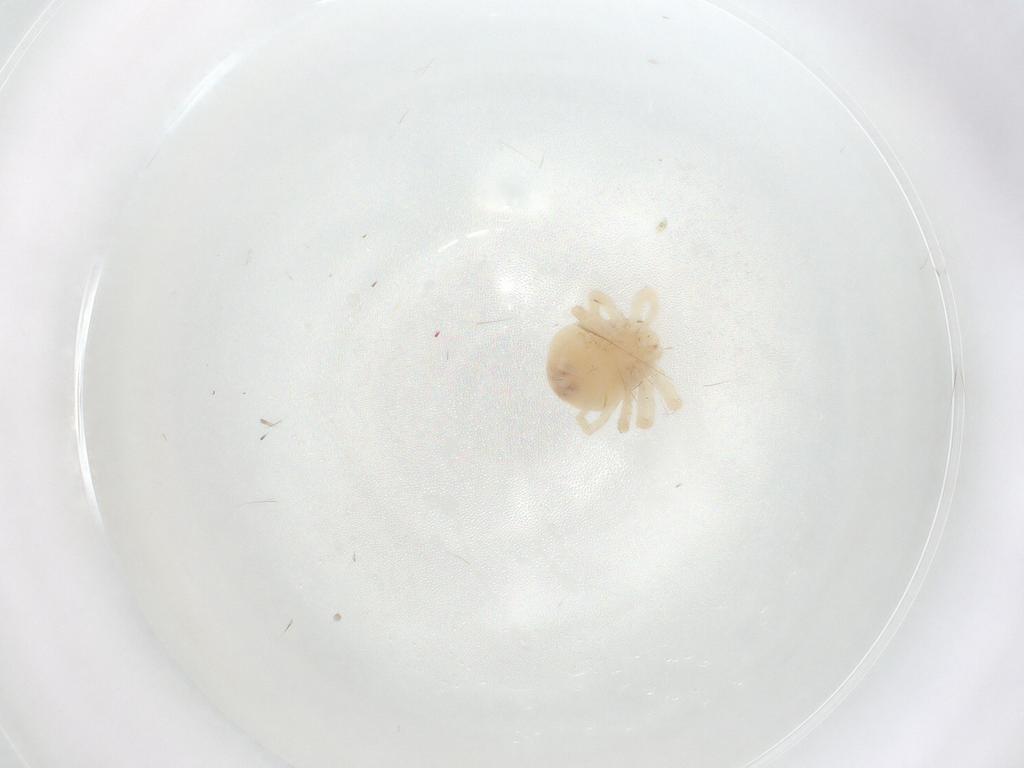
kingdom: Animalia
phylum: Arthropoda
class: Arachnida
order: Trombidiformes
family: Anystidae
